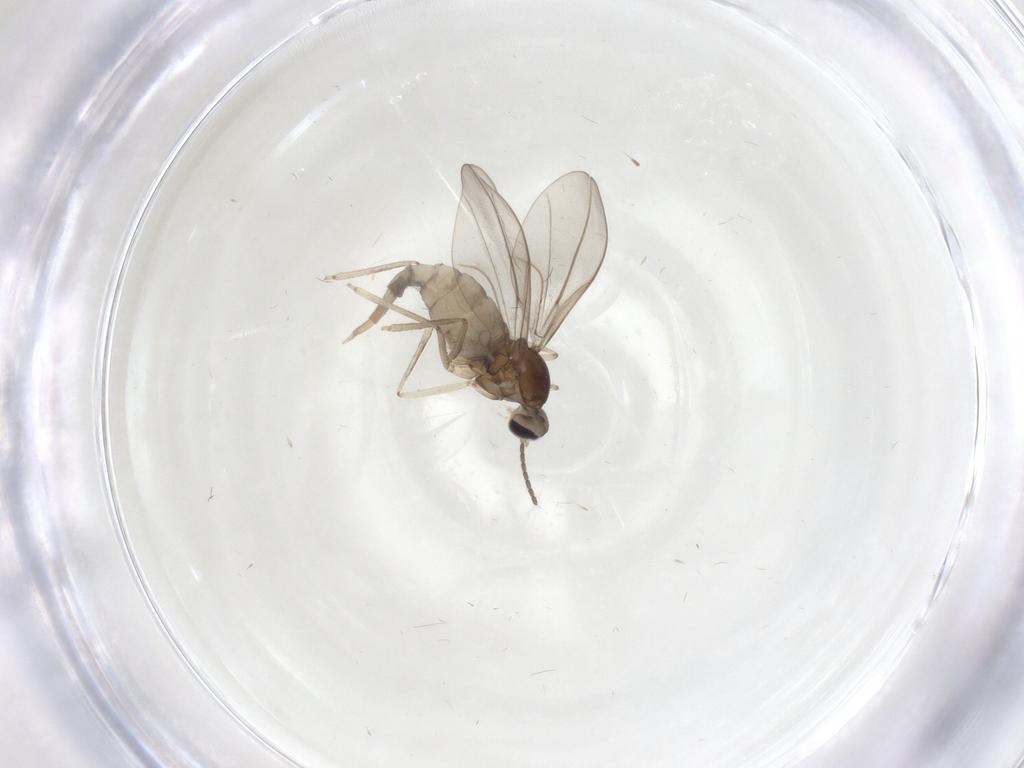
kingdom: Animalia
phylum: Arthropoda
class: Insecta
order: Diptera
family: Cecidomyiidae
